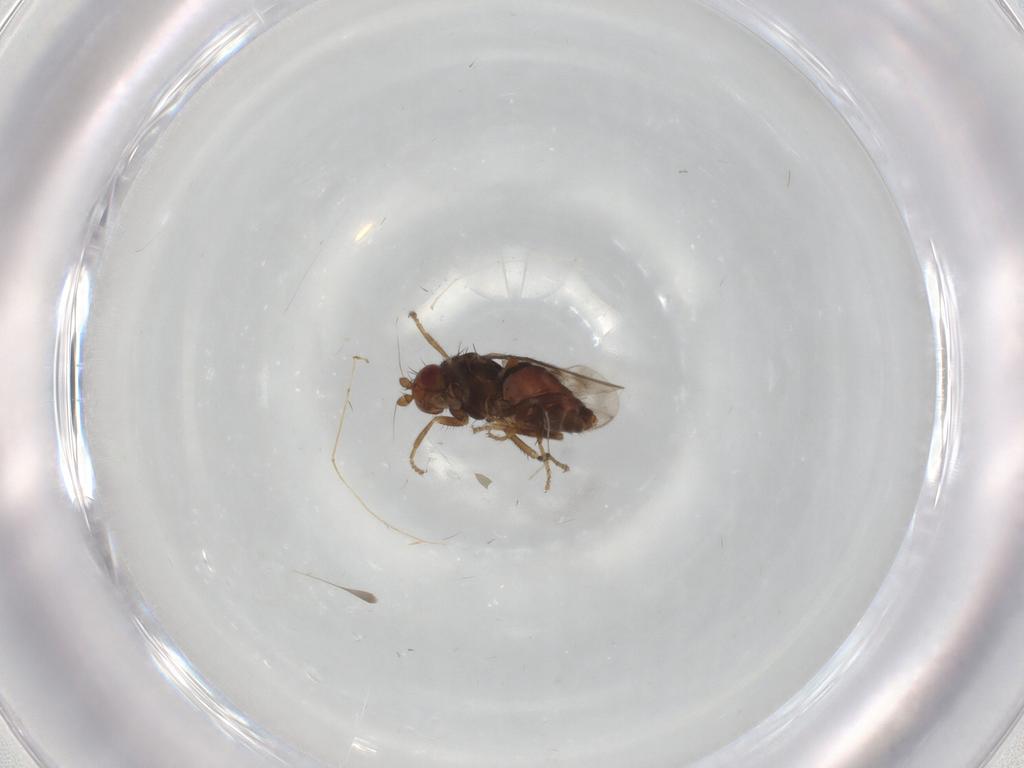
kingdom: Animalia
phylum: Arthropoda
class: Insecta
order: Diptera
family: Sphaeroceridae
